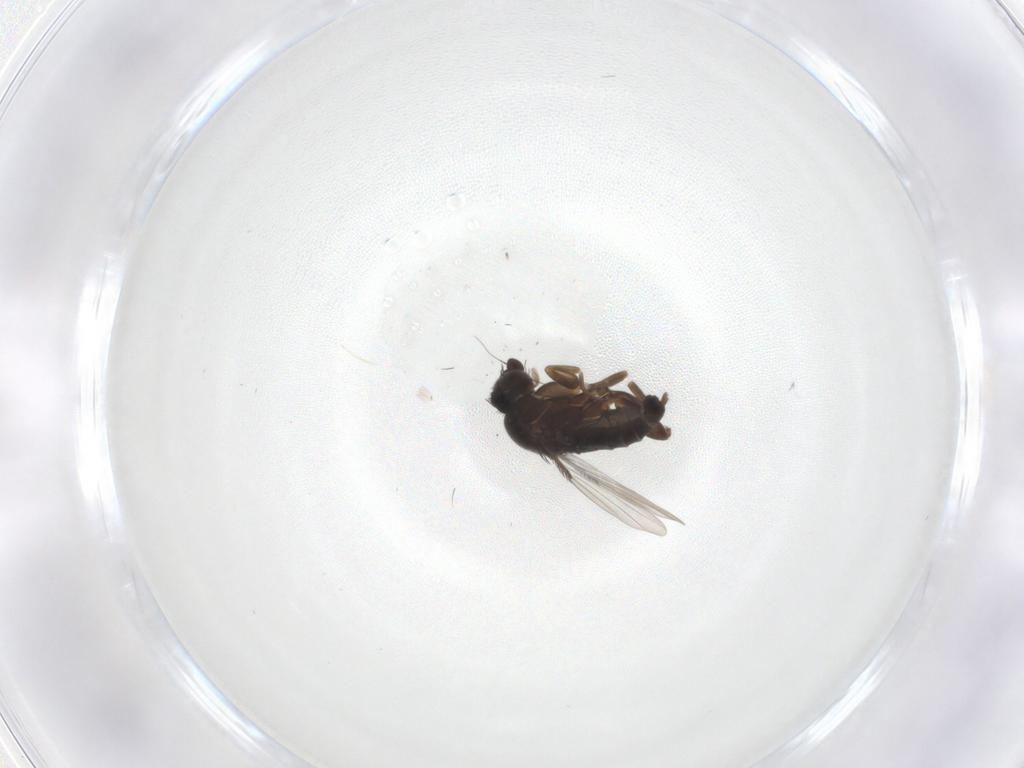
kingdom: Animalia
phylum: Arthropoda
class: Insecta
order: Diptera
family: Phoridae
